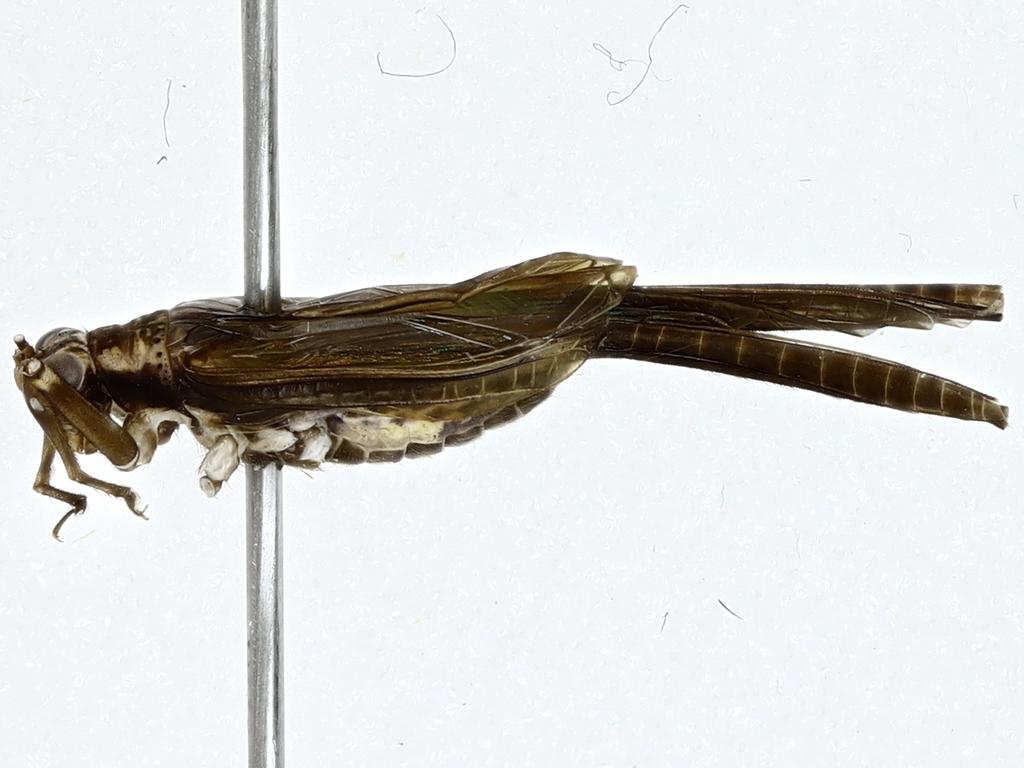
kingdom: Animalia
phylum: Arthropoda
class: Insecta
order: Orthoptera
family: Trigonidiidae
